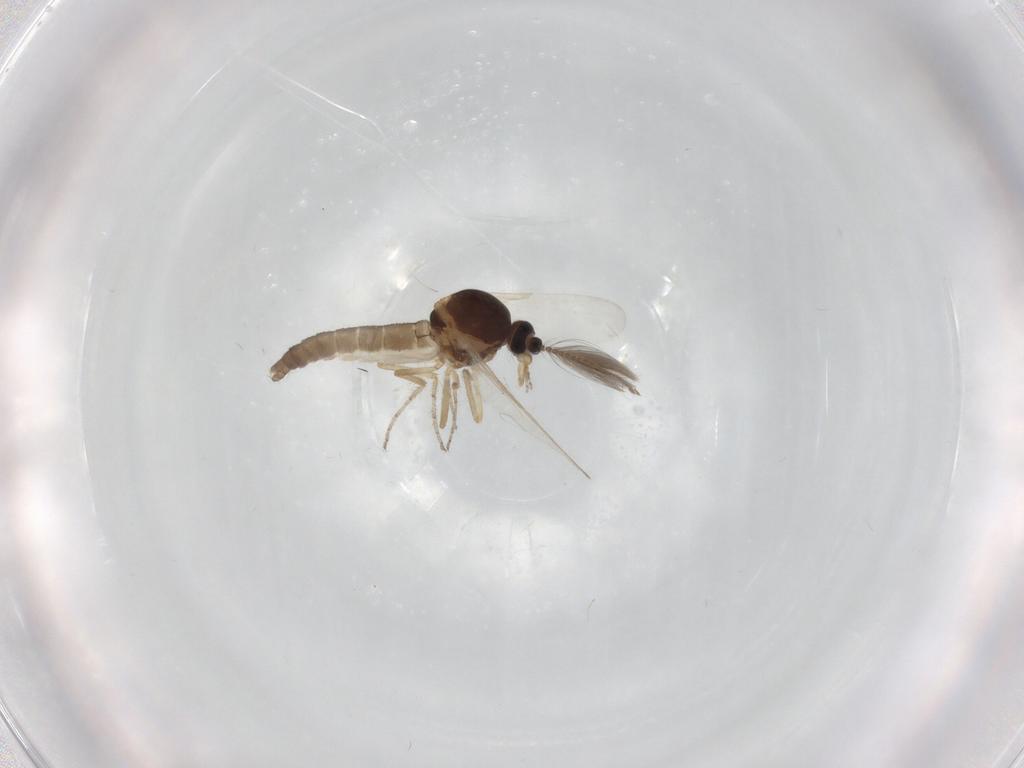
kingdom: Animalia
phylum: Arthropoda
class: Insecta
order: Diptera
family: Ceratopogonidae
